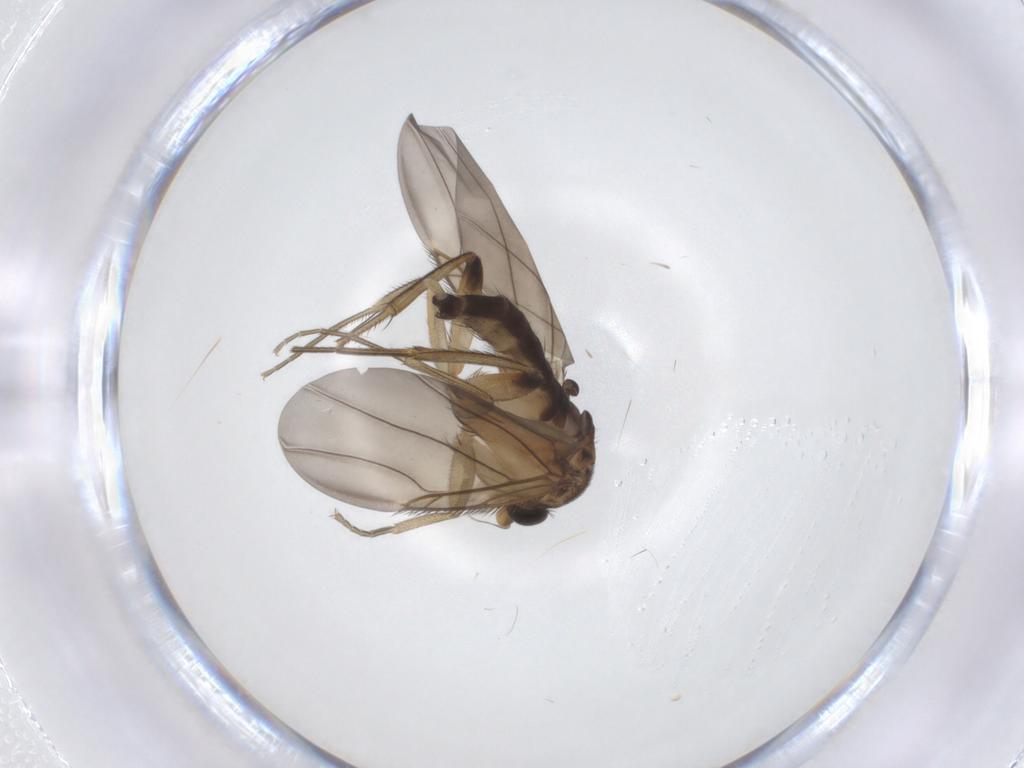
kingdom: Animalia
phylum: Arthropoda
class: Insecta
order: Diptera
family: Phoridae
